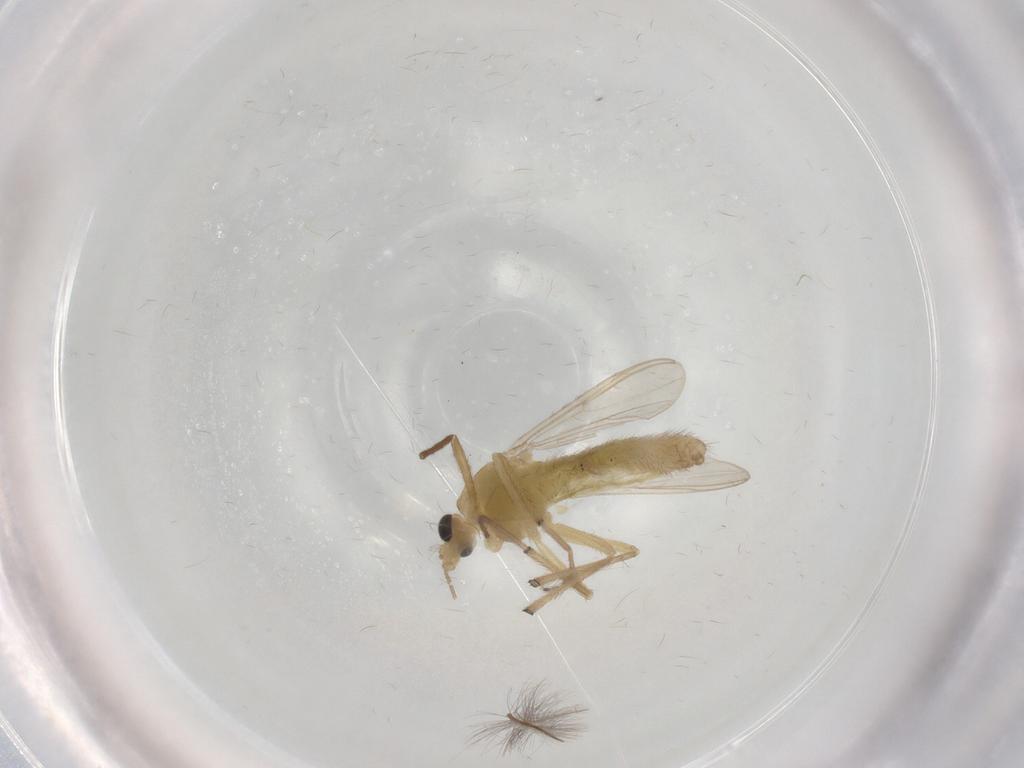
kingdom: Animalia
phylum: Arthropoda
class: Insecta
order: Diptera
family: Chironomidae
